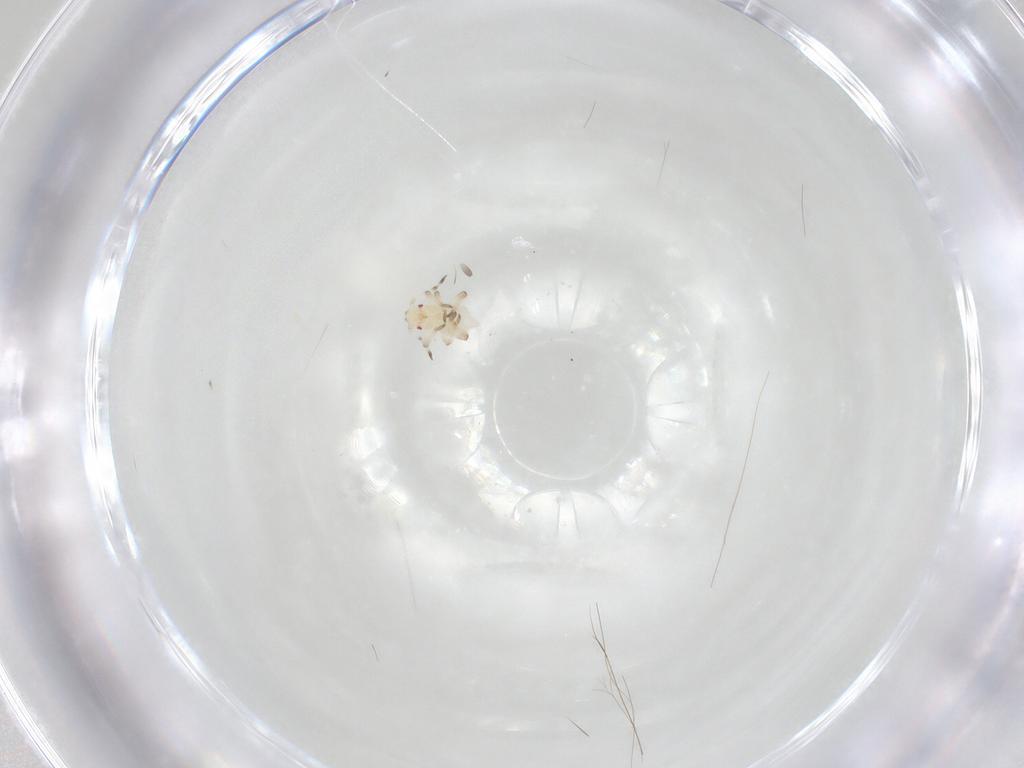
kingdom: Animalia
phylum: Arthropoda
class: Insecta
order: Hemiptera
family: Aphididae
